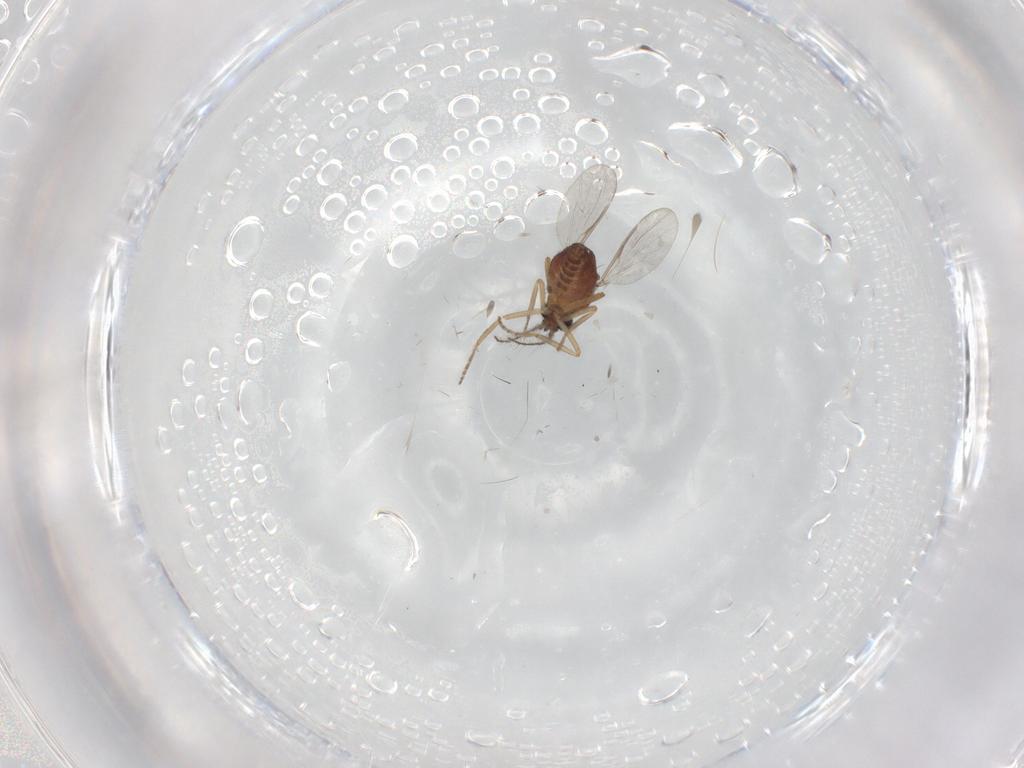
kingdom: Animalia
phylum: Arthropoda
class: Insecta
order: Diptera
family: Ceratopogonidae
